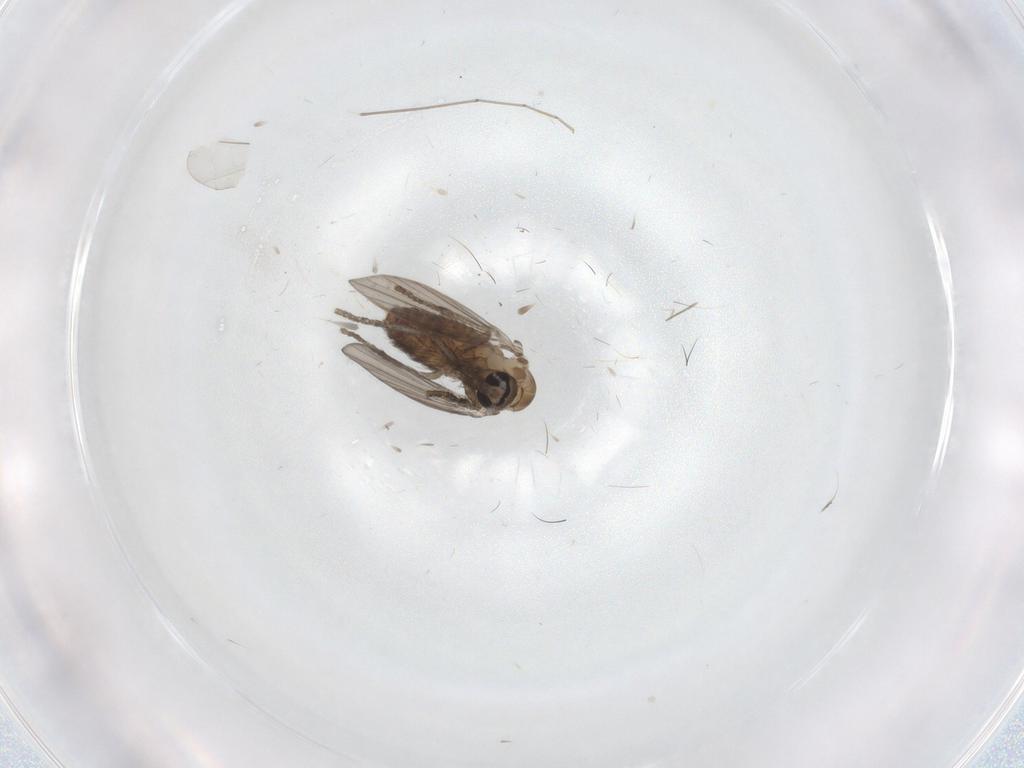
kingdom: Animalia
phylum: Arthropoda
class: Insecta
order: Diptera
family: Psychodidae
